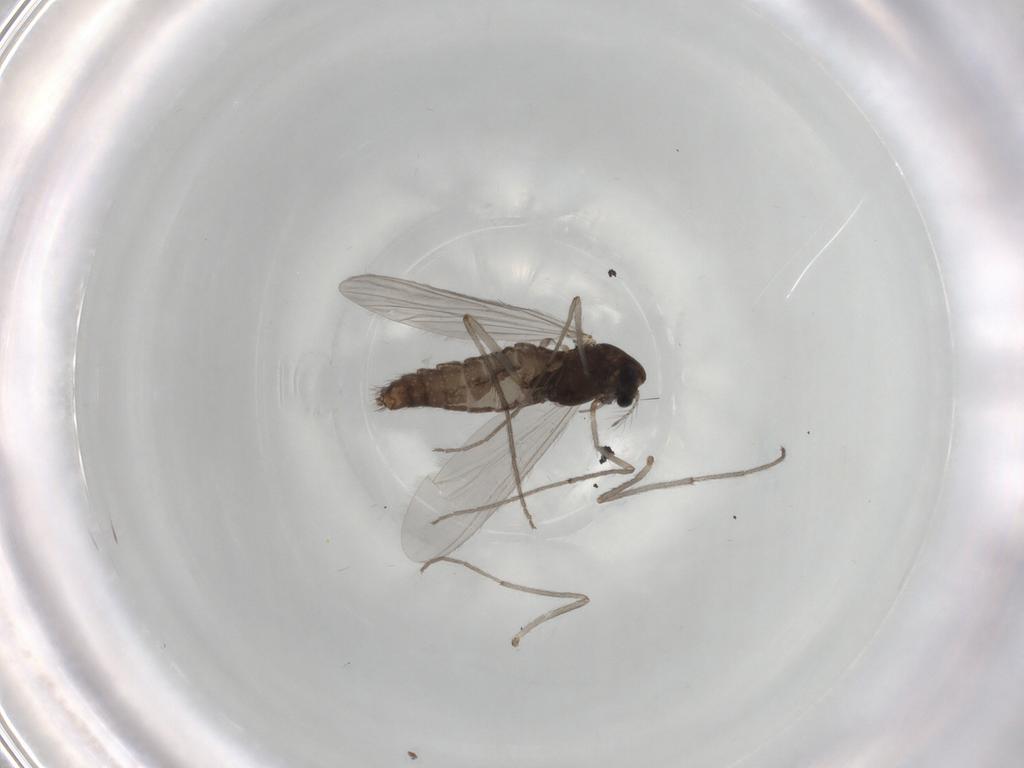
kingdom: Animalia
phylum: Arthropoda
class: Insecta
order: Diptera
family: Chironomidae
